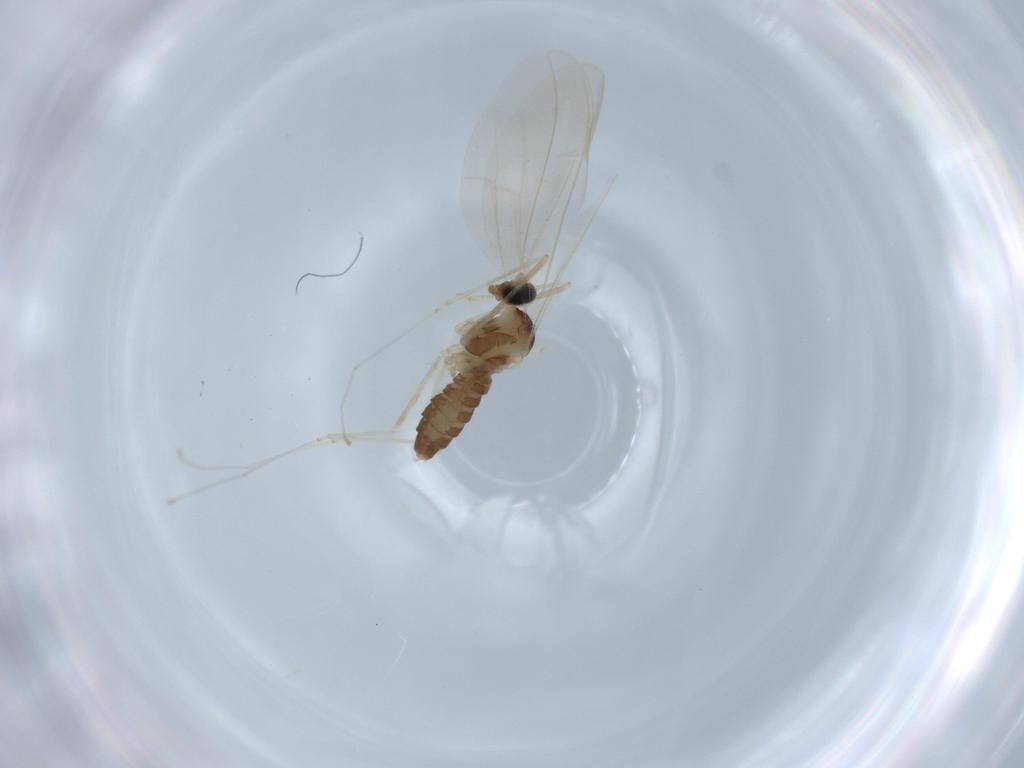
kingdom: Animalia
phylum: Arthropoda
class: Insecta
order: Diptera
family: Cecidomyiidae
